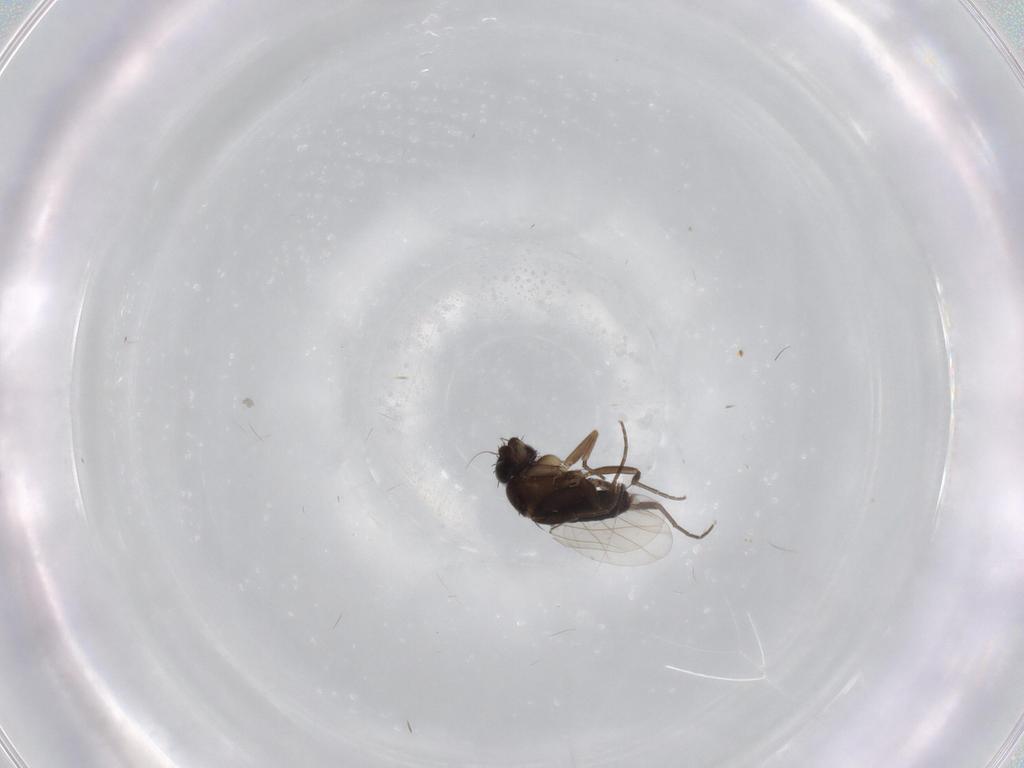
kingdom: Animalia
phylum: Arthropoda
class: Insecta
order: Diptera
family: Phoridae
